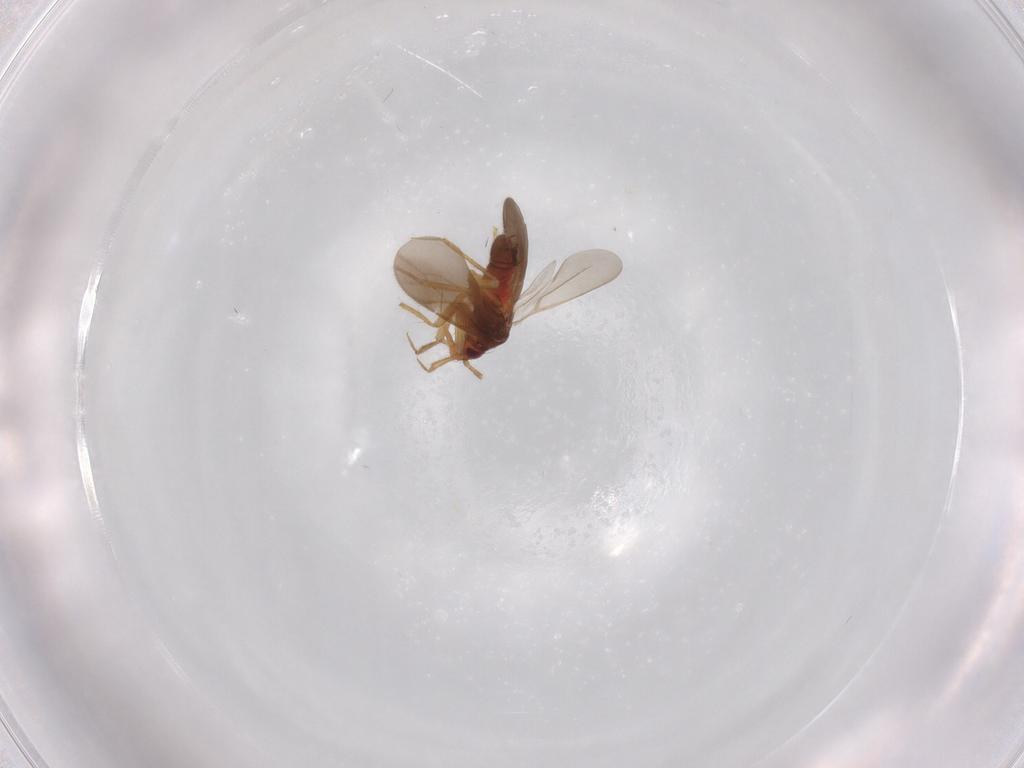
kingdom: Animalia
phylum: Arthropoda
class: Insecta
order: Hemiptera
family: Ceratocombidae
